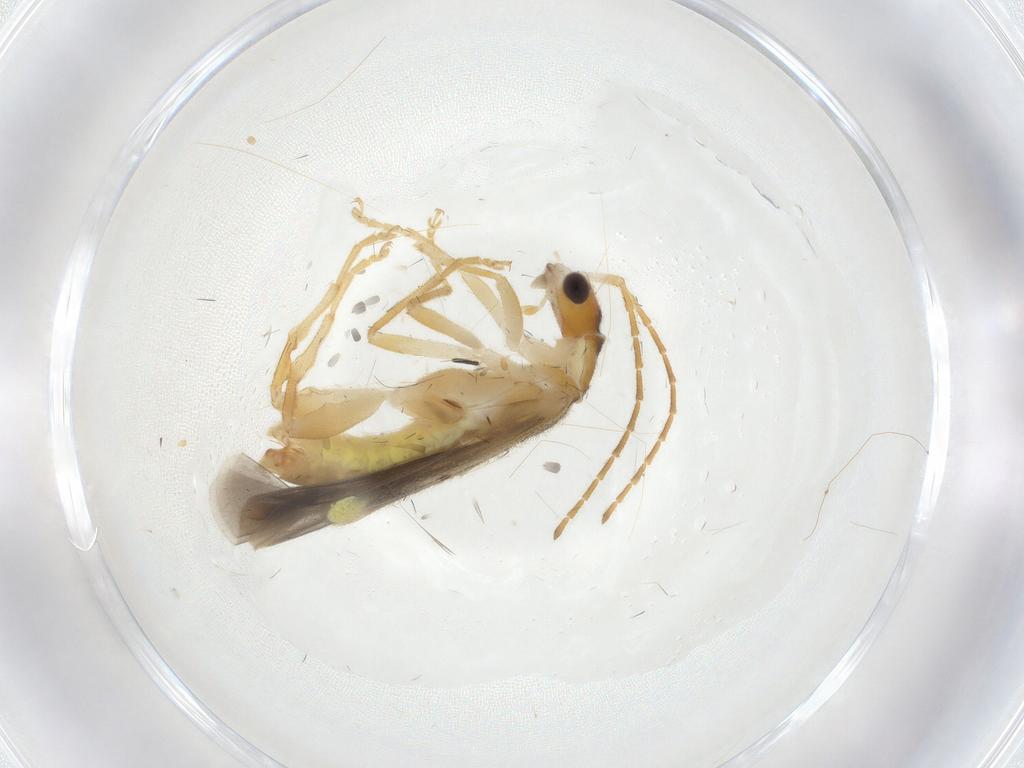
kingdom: Animalia
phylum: Arthropoda
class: Insecta
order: Coleoptera
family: Cantharidae
